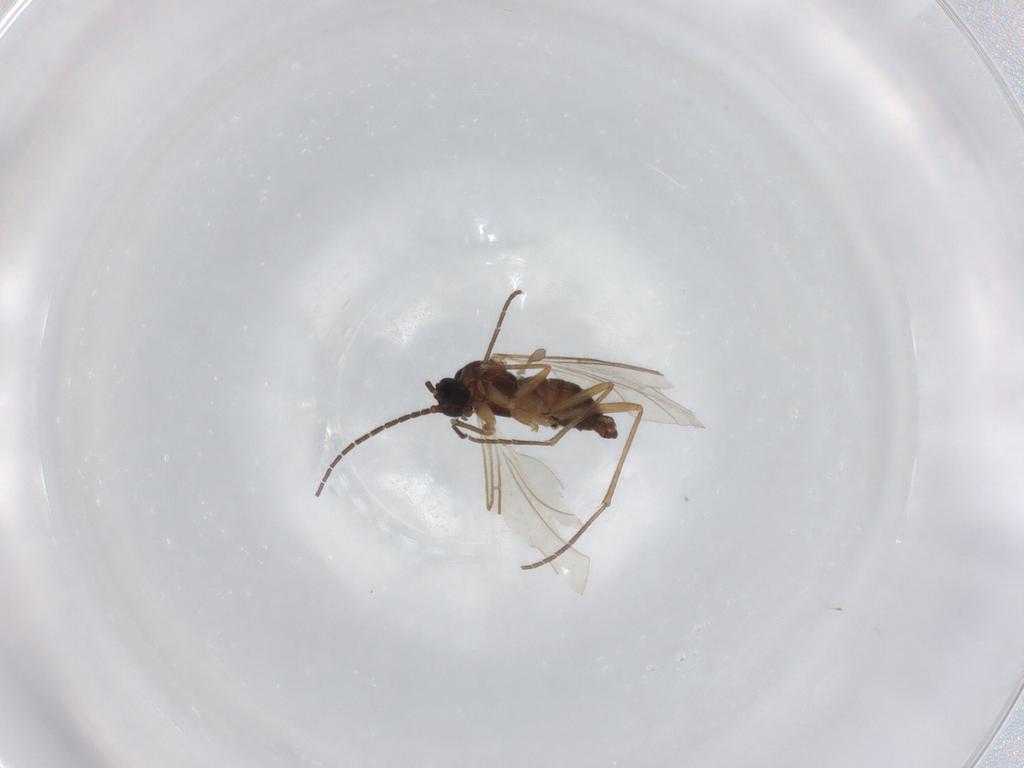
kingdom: Animalia
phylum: Arthropoda
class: Insecta
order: Diptera
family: Sciaridae
